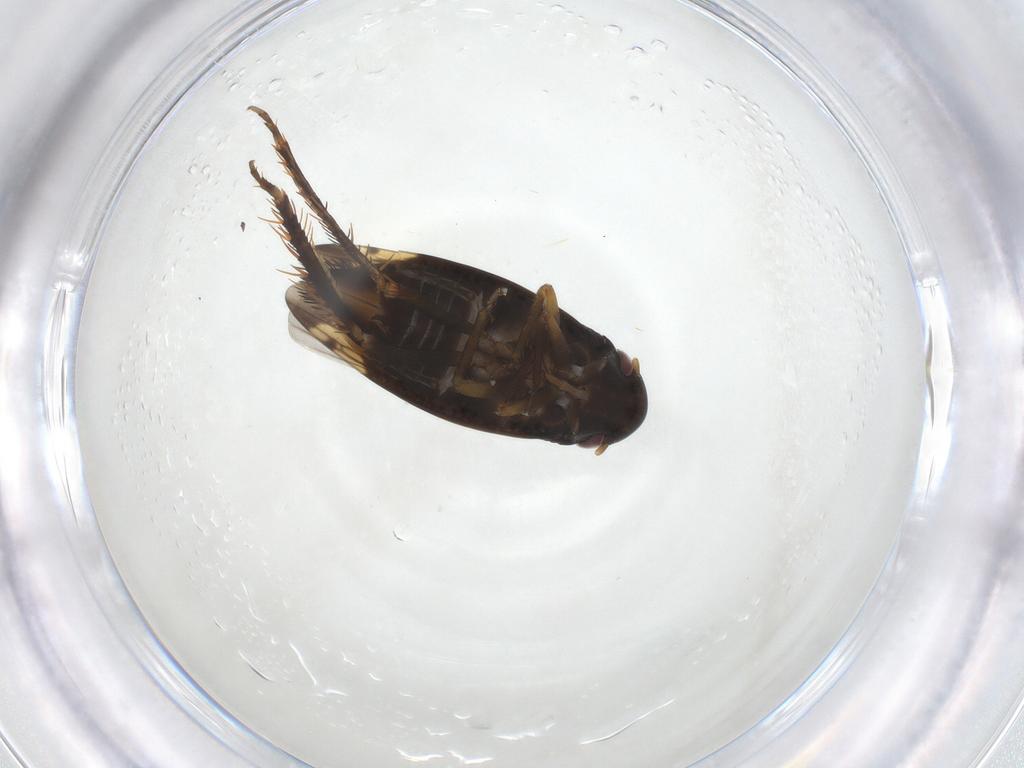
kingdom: Animalia
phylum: Arthropoda
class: Insecta
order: Hemiptera
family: Cicadellidae
